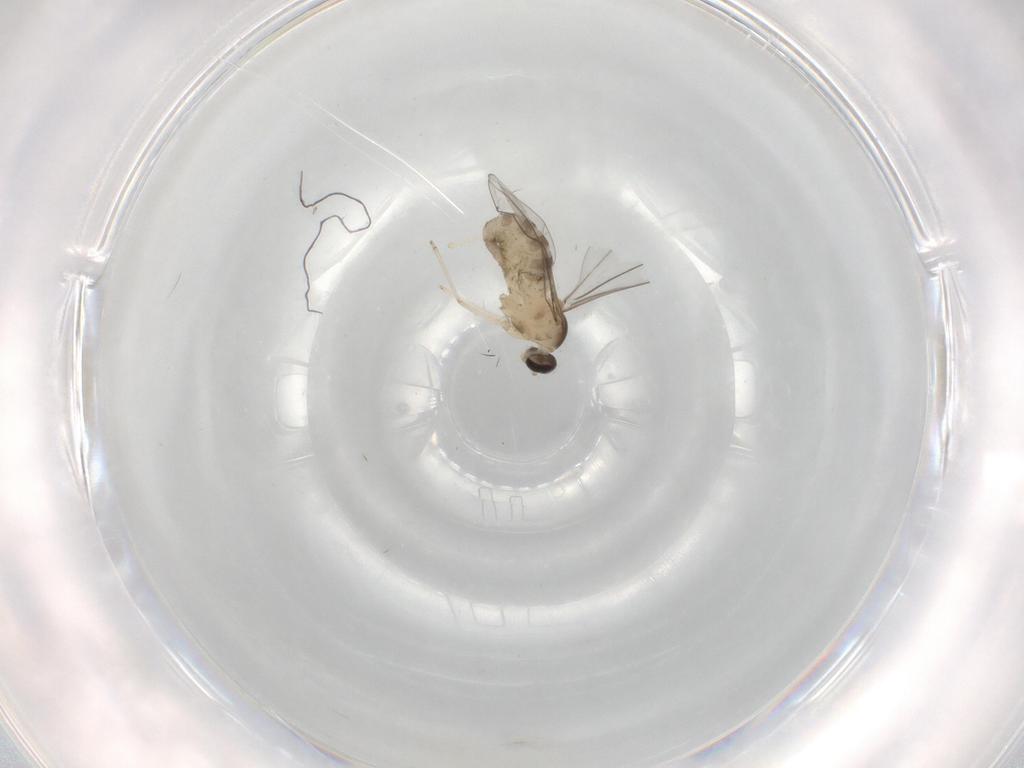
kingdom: Animalia
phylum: Arthropoda
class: Insecta
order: Diptera
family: Cecidomyiidae
